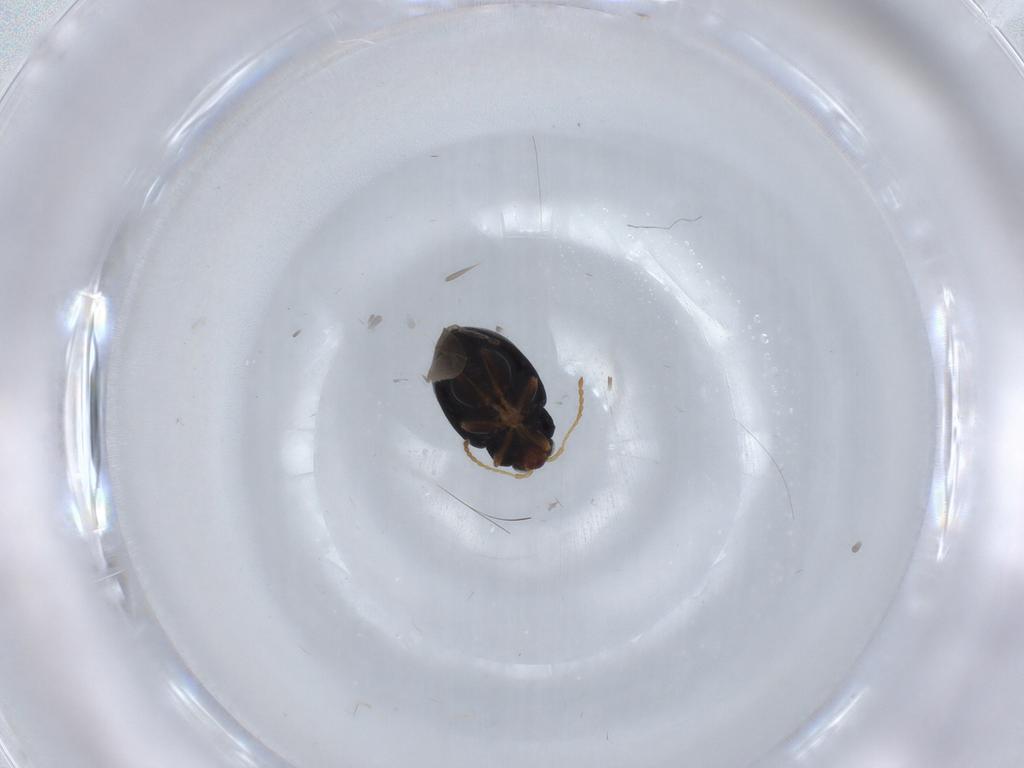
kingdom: Animalia
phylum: Arthropoda
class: Insecta
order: Coleoptera
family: Chrysomelidae
